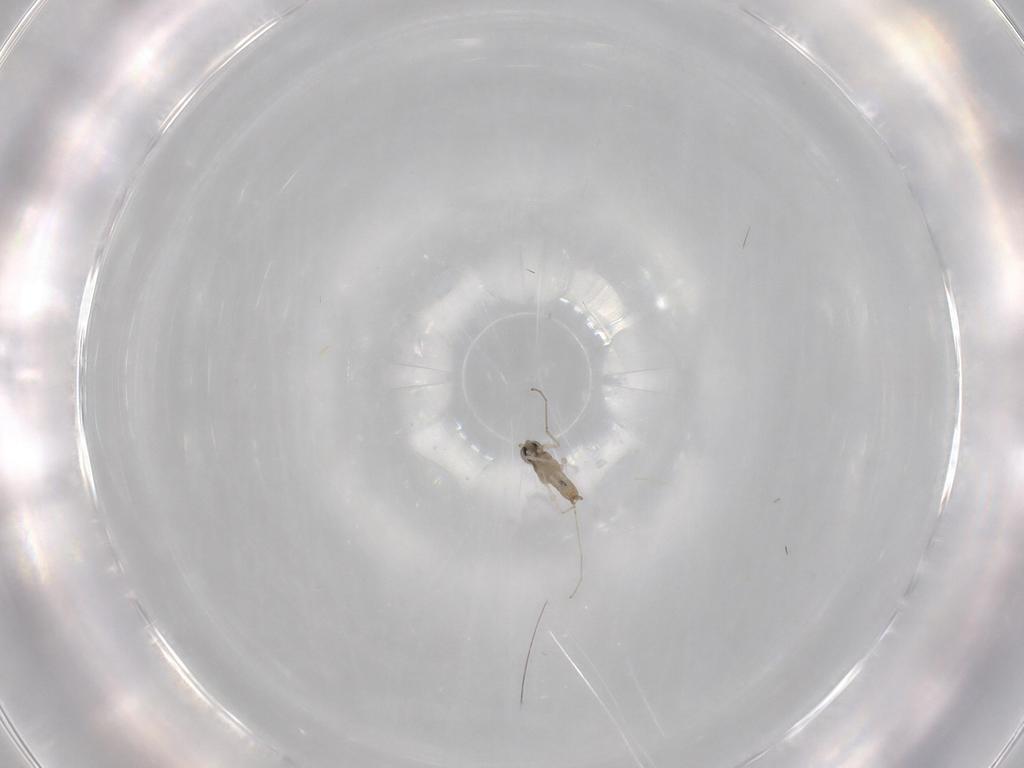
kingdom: Animalia
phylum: Arthropoda
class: Insecta
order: Diptera
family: Cecidomyiidae
